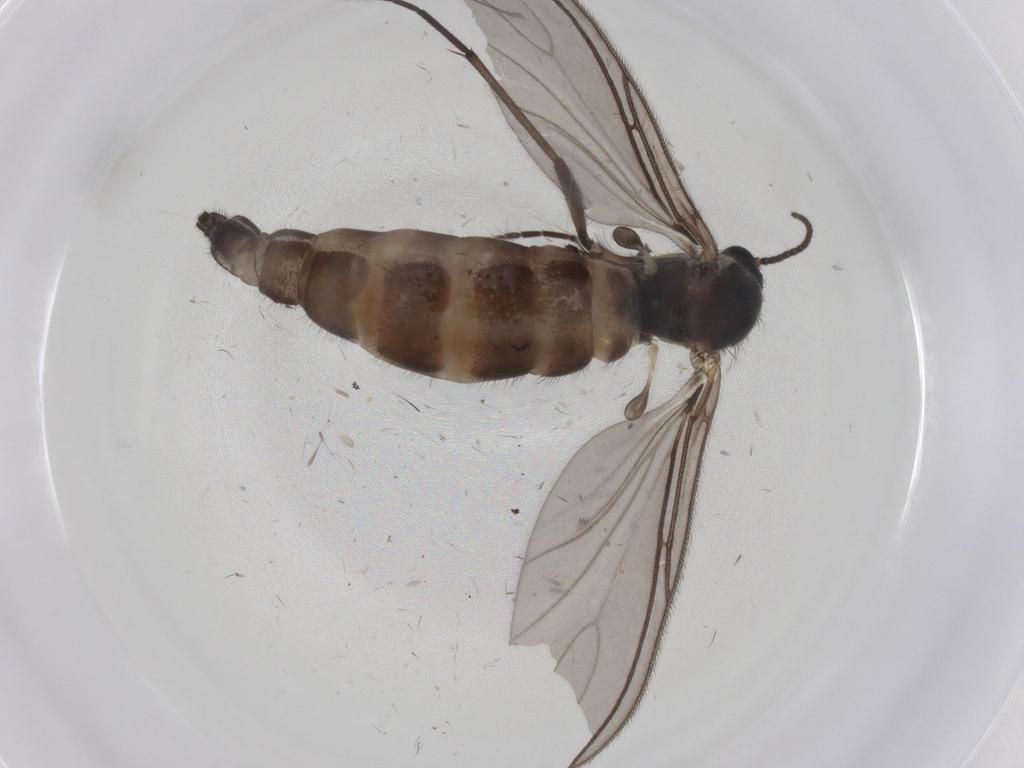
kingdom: Animalia
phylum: Arthropoda
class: Insecta
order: Diptera
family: Sciaridae
